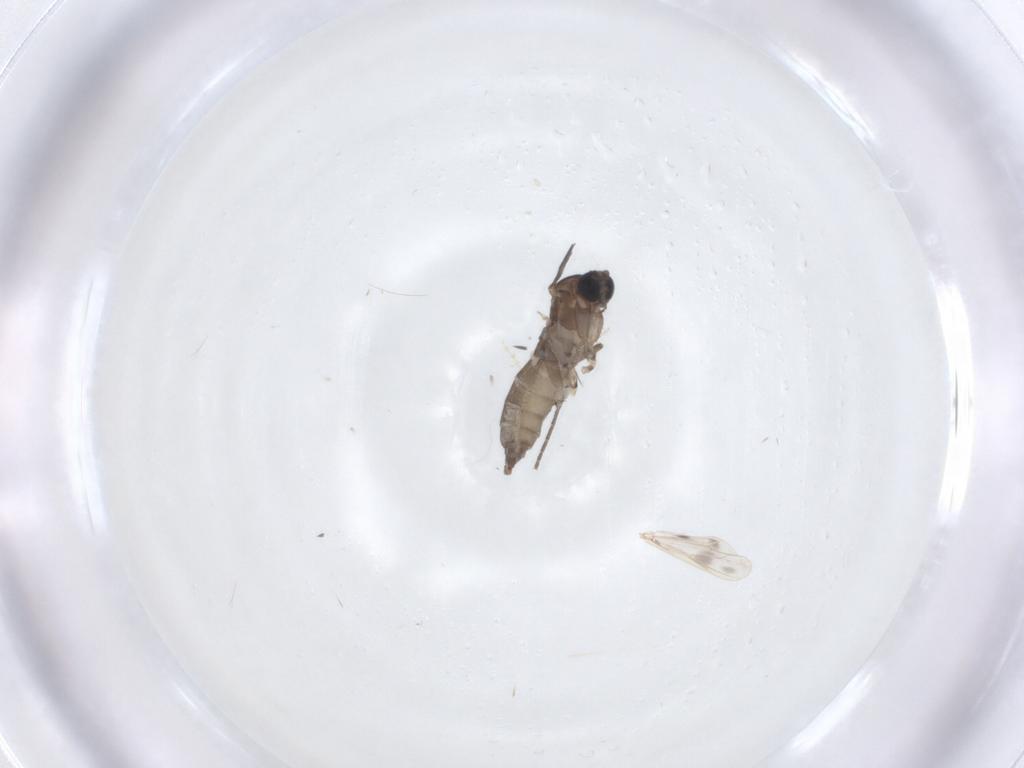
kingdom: Animalia
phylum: Arthropoda
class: Insecta
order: Diptera
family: Sciaridae
